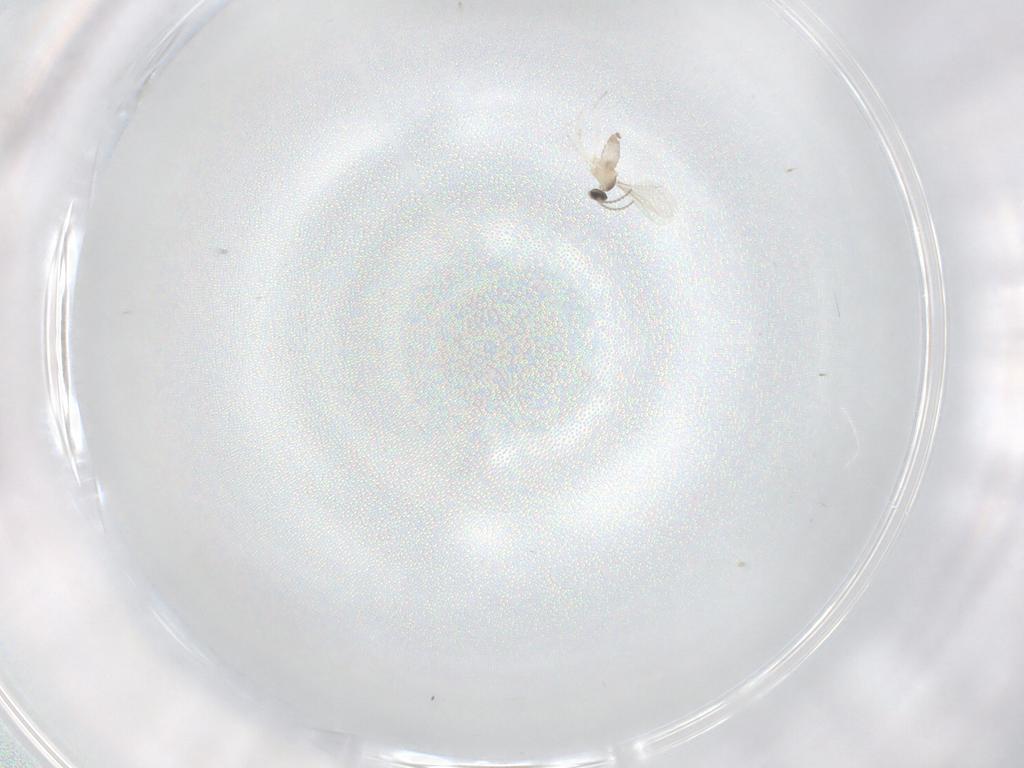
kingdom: Animalia
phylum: Arthropoda
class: Insecta
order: Diptera
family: Cecidomyiidae
